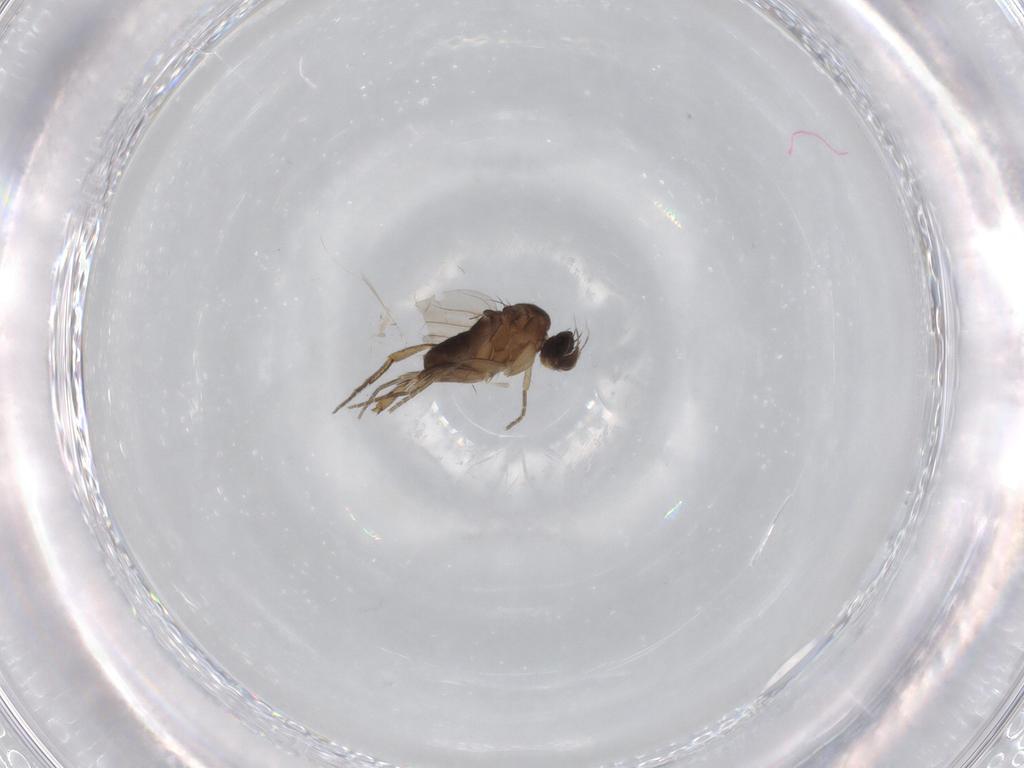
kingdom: Animalia
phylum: Arthropoda
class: Insecta
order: Diptera
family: Phoridae
